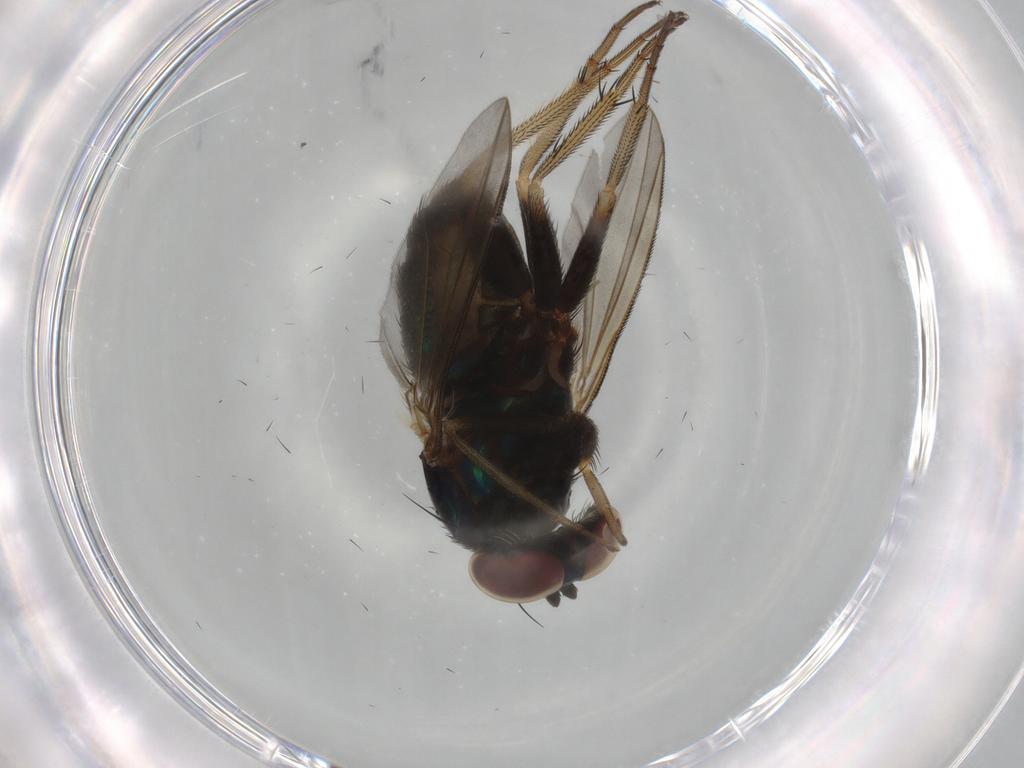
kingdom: Animalia
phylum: Arthropoda
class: Insecta
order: Diptera
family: Dolichopodidae
